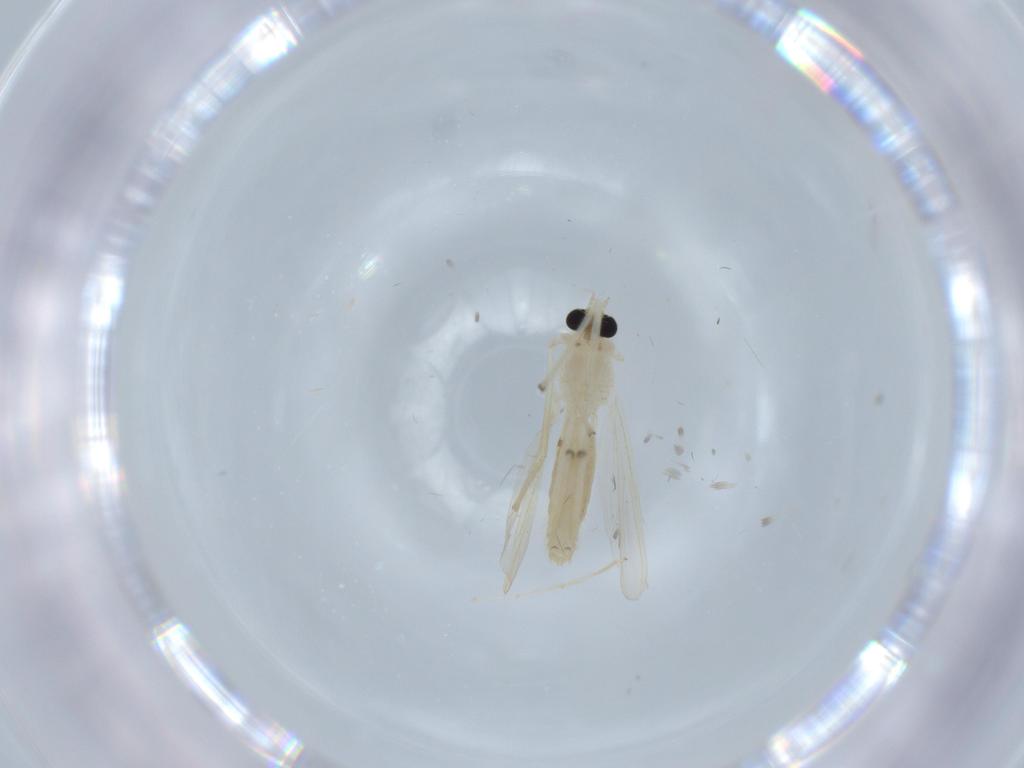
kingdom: Animalia
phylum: Arthropoda
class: Insecta
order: Diptera
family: Chironomidae
